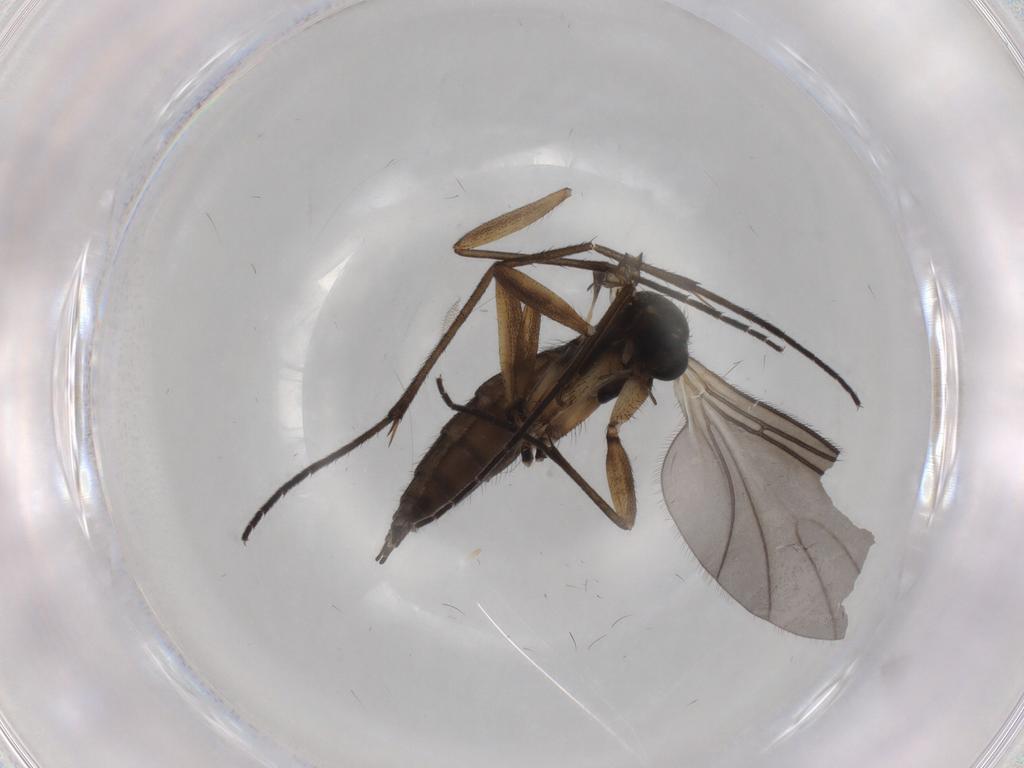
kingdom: Animalia
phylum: Arthropoda
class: Insecta
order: Diptera
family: Sciaridae
